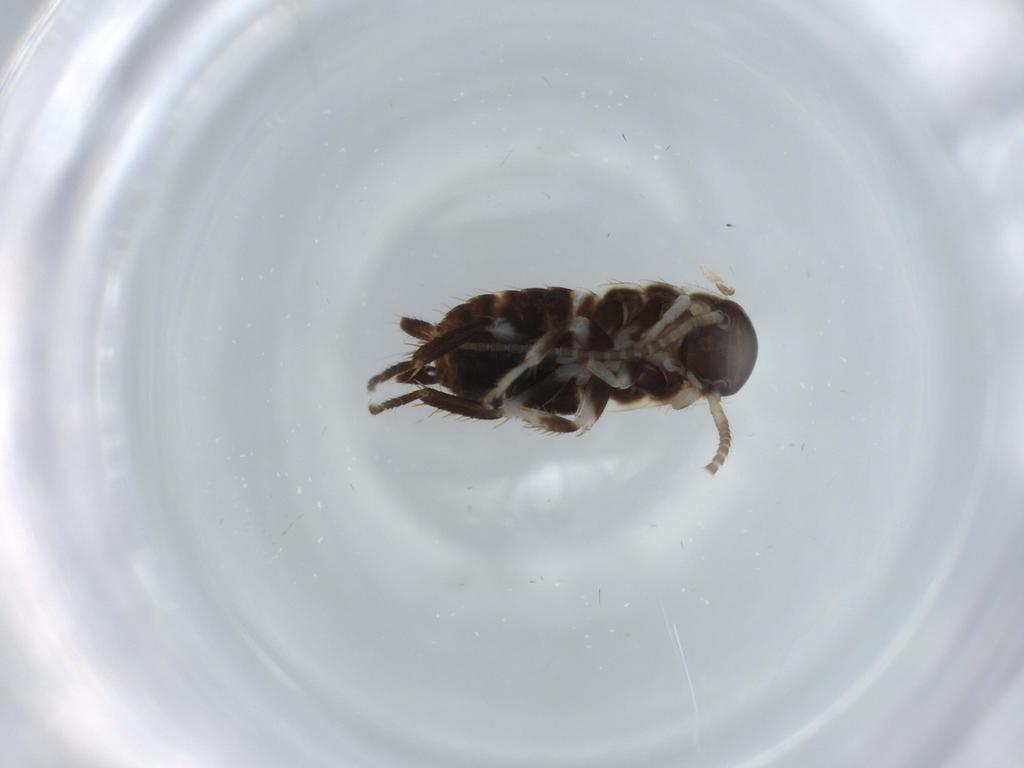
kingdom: Animalia
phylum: Arthropoda
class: Insecta
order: Blattodea
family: Ectobiidae
